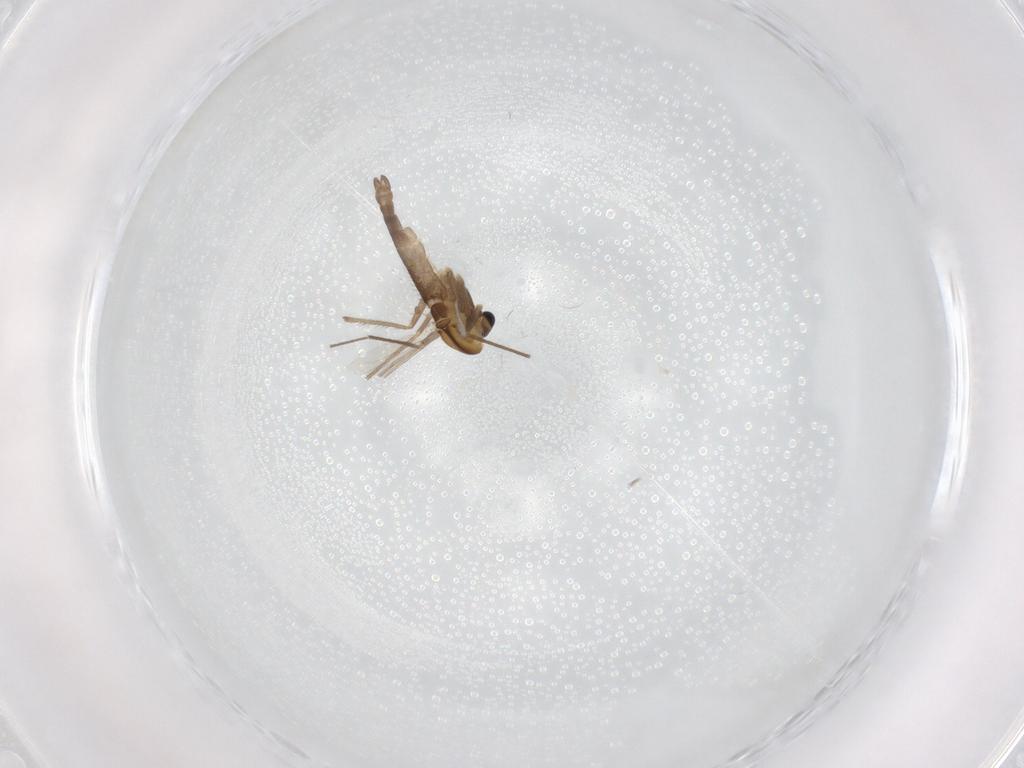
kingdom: Animalia
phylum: Arthropoda
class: Insecta
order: Diptera
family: Chironomidae
